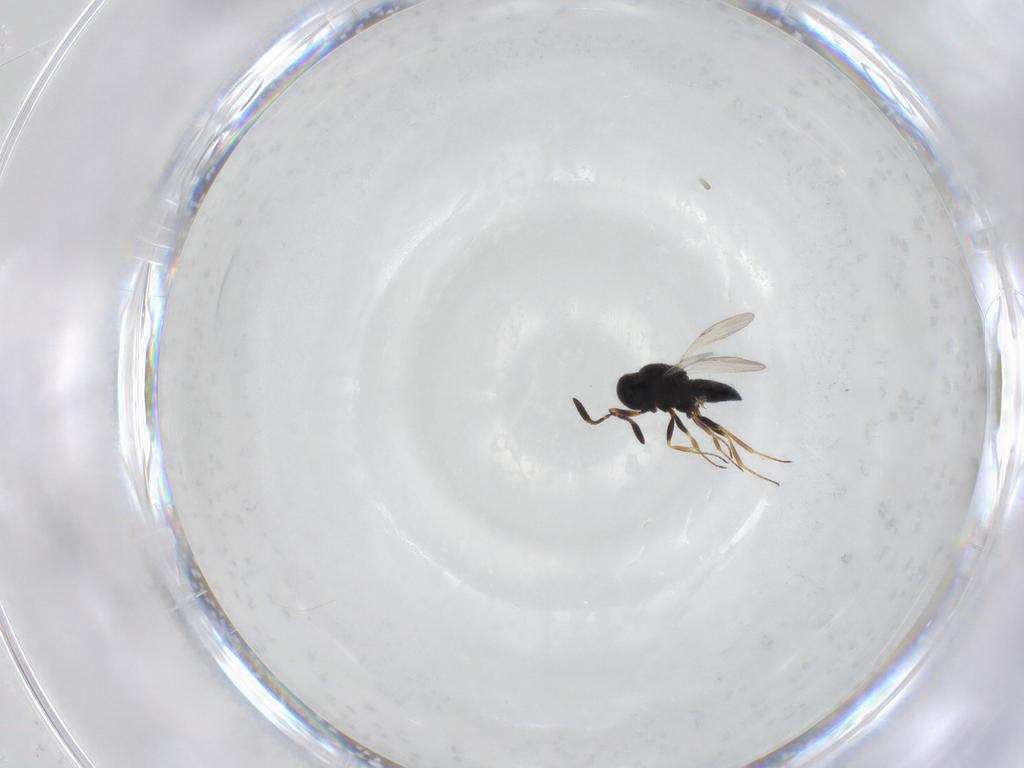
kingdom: Animalia
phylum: Arthropoda
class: Insecta
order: Hymenoptera
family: Scelionidae
